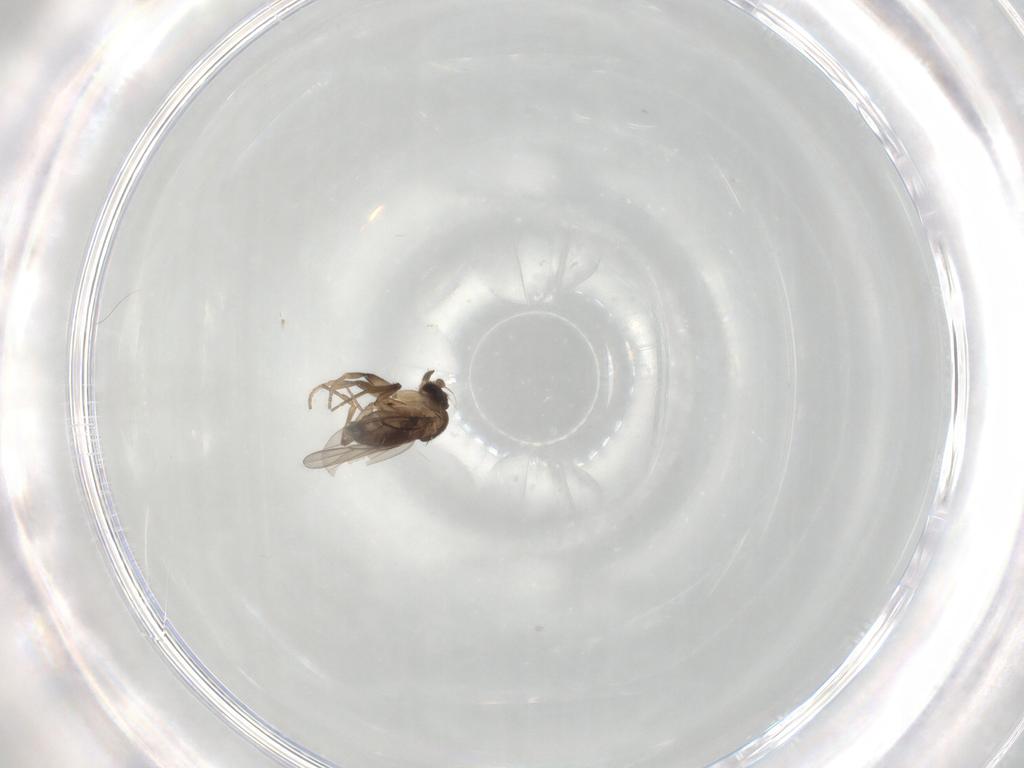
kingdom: Animalia
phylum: Arthropoda
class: Insecta
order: Diptera
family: Phoridae
